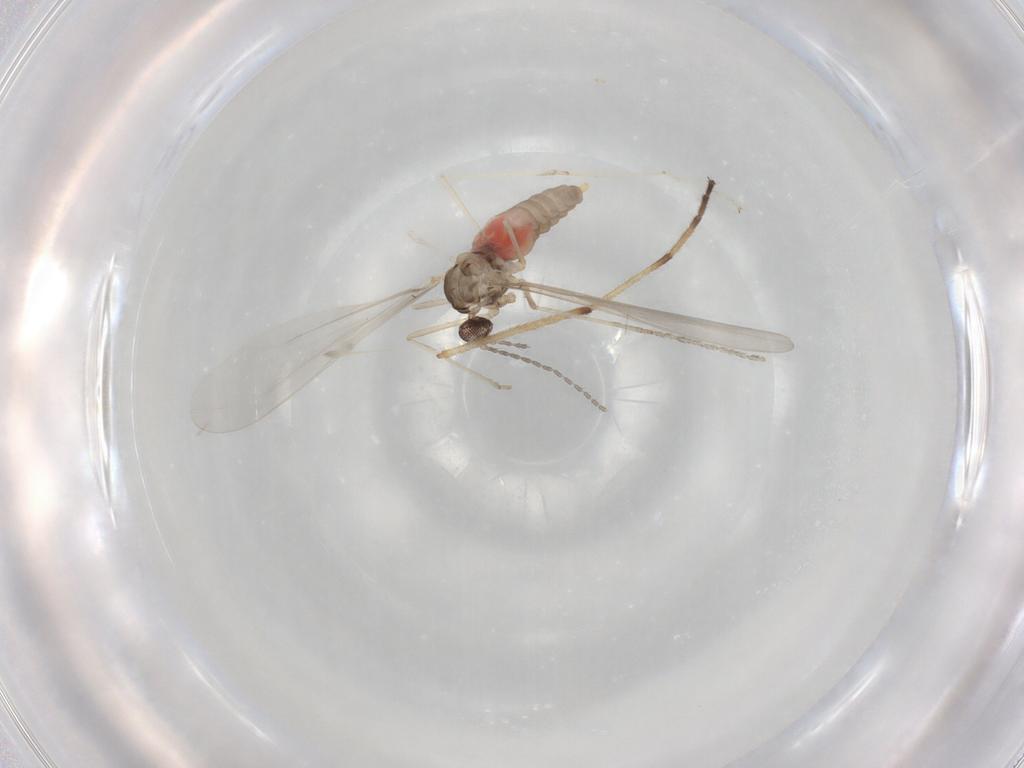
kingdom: Animalia
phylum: Arthropoda
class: Insecta
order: Diptera
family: Cecidomyiidae
